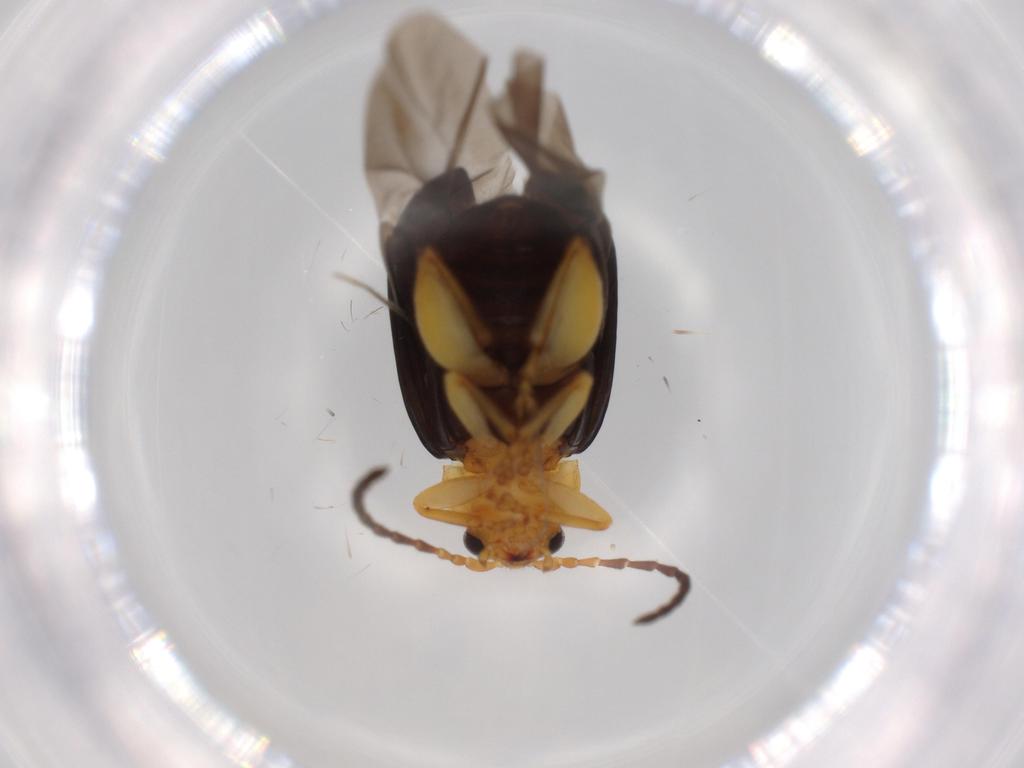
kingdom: Animalia
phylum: Arthropoda
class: Insecta
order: Coleoptera
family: Chrysomelidae
